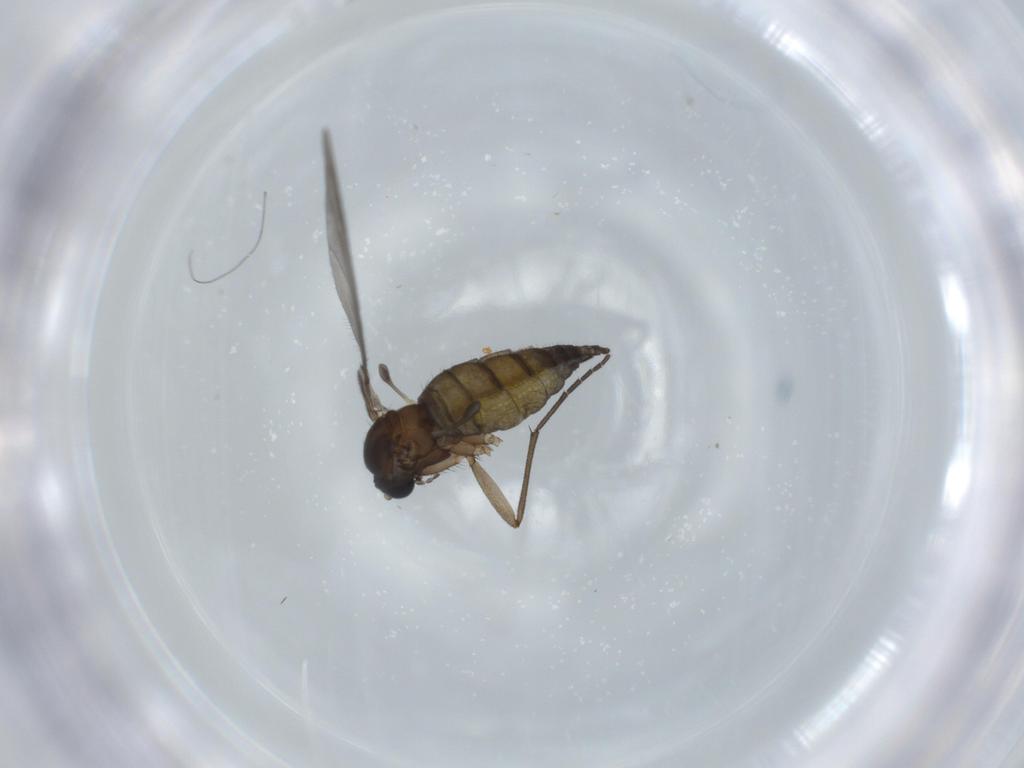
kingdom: Animalia
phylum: Arthropoda
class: Insecta
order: Diptera
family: Sciaridae
